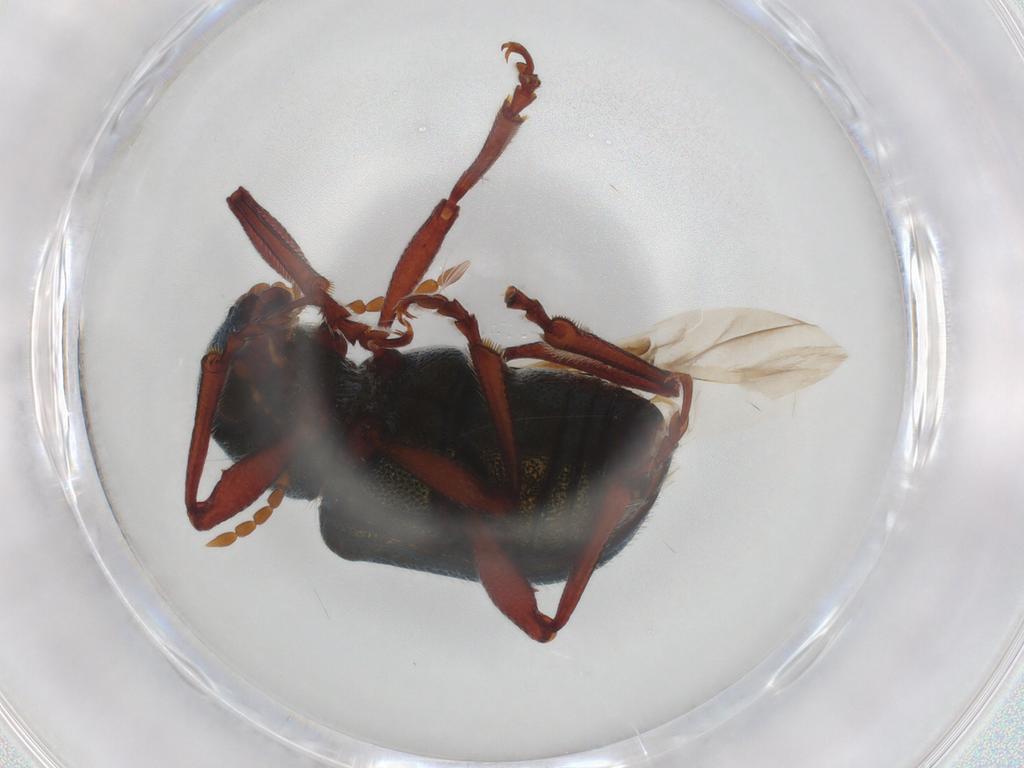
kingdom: Animalia
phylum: Arthropoda
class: Insecta
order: Coleoptera
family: Chrysomelidae
